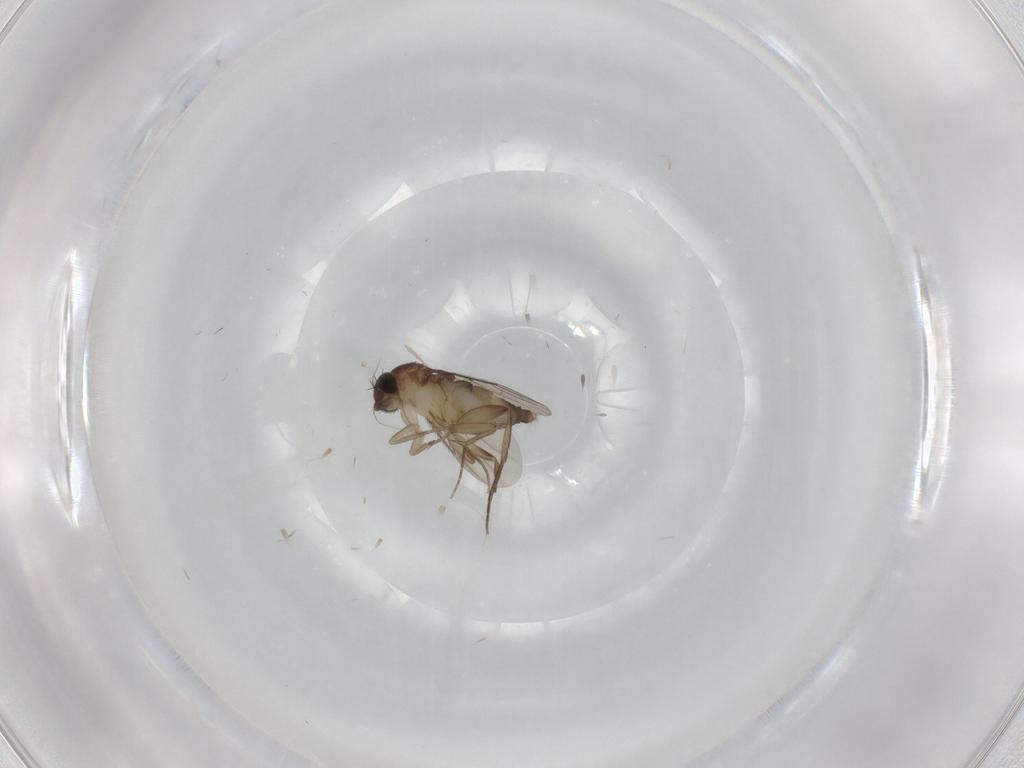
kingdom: Animalia
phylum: Arthropoda
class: Insecta
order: Diptera
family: Phoridae
